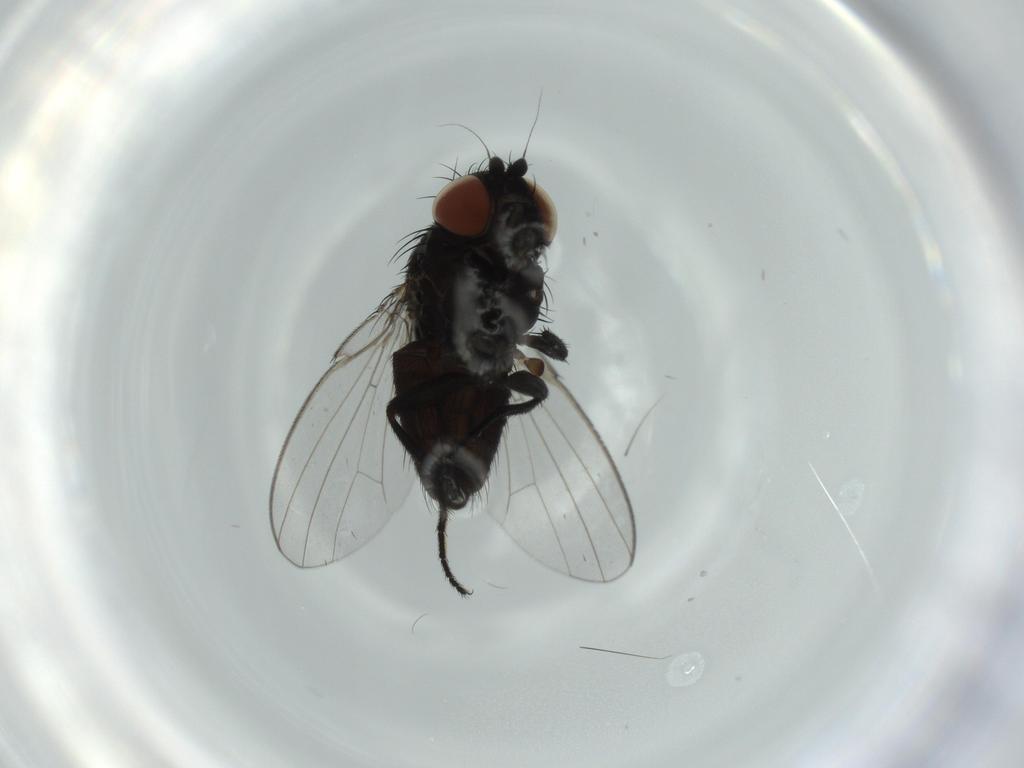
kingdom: Animalia
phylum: Arthropoda
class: Insecta
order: Diptera
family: Milichiidae
